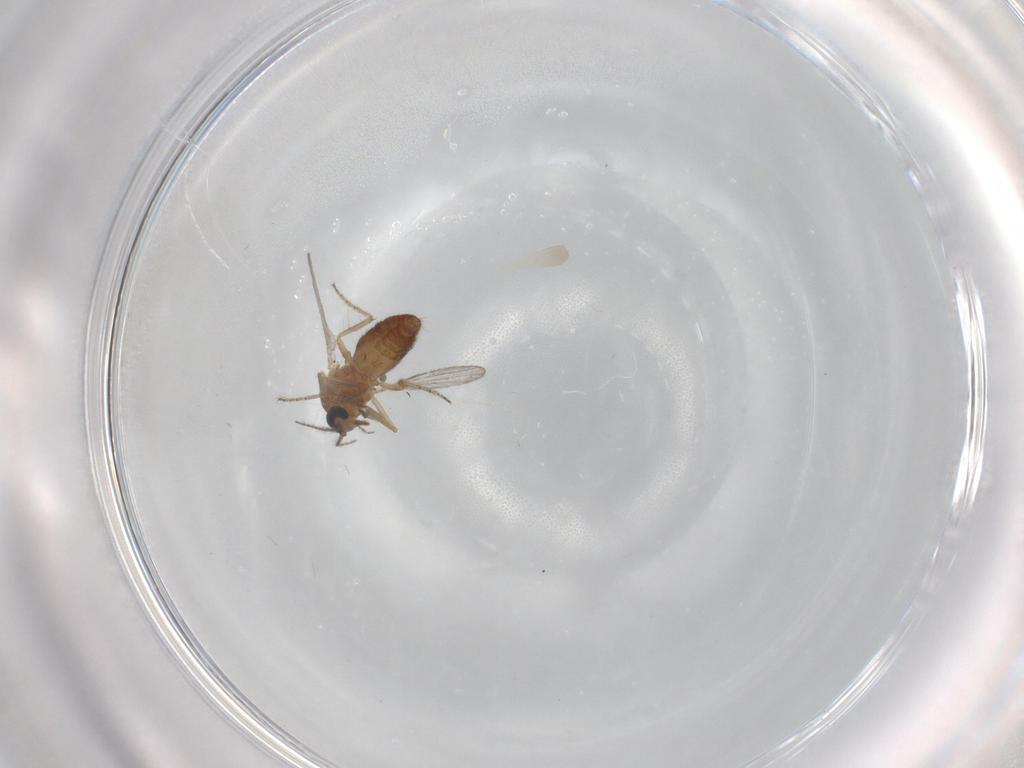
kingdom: Animalia
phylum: Arthropoda
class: Insecta
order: Diptera
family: Ceratopogonidae
